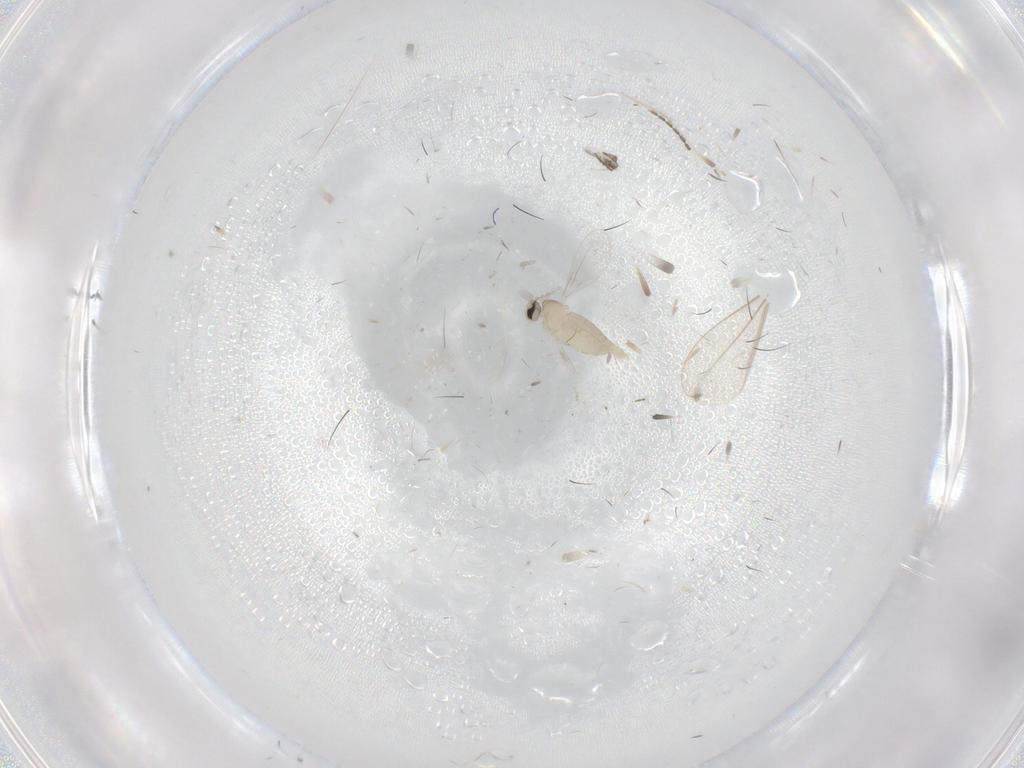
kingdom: Animalia
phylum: Arthropoda
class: Insecta
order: Diptera
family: Cecidomyiidae
